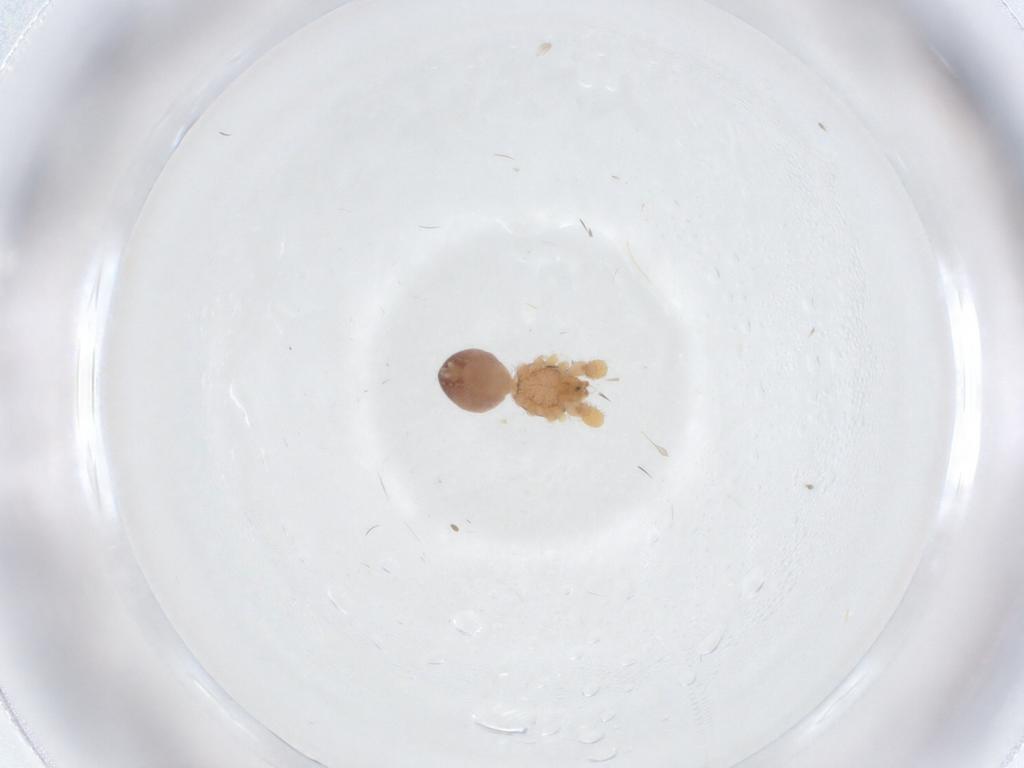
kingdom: Animalia
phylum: Arthropoda
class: Arachnida
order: Araneae
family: Idiopidae
